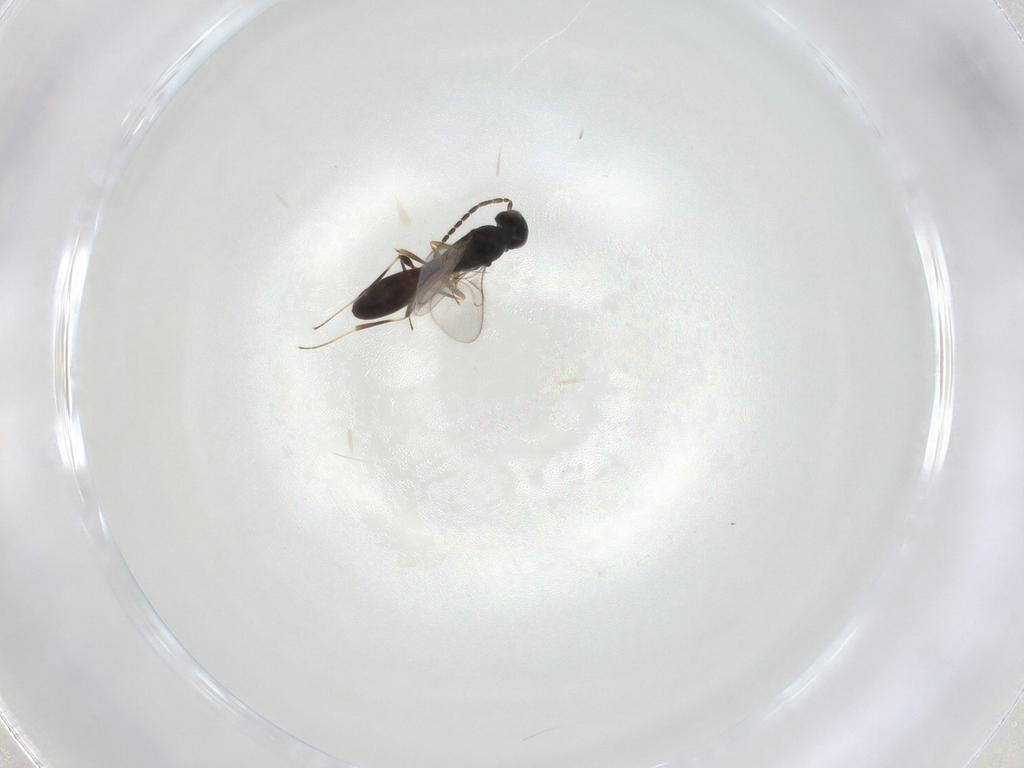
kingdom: Animalia
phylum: Arthropoda
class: Insecta
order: Hymenoptera
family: Scelionidae
